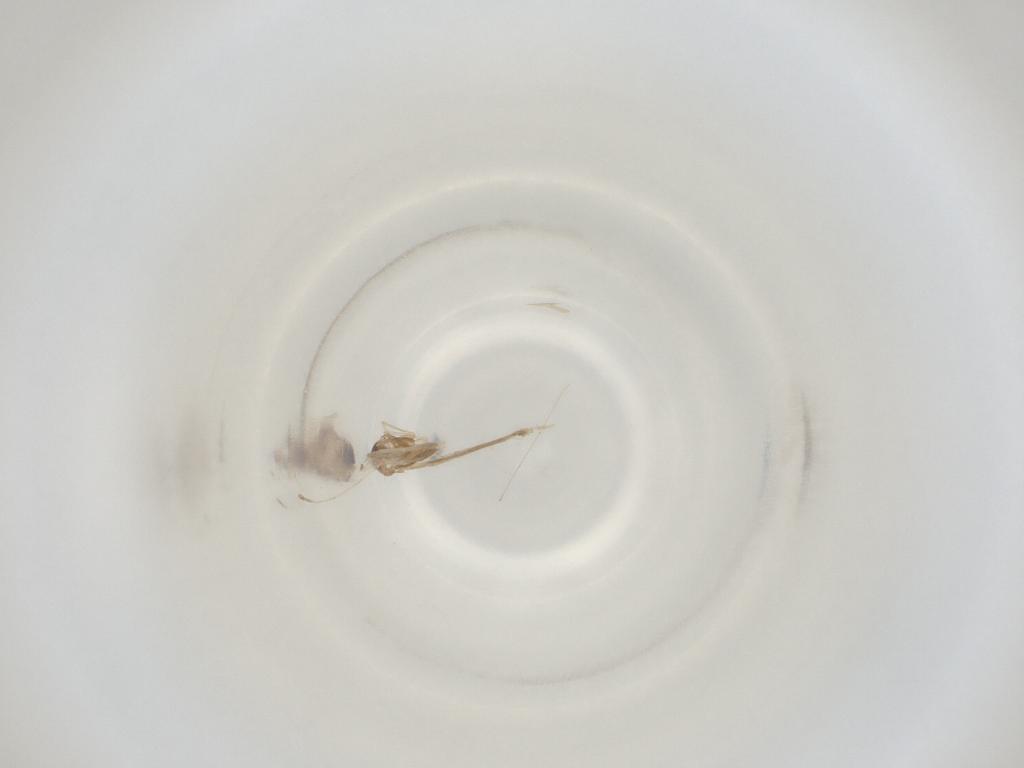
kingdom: Animalia
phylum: Arthropoda
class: Insecta
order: Diptera
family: Cecidomyiidae
